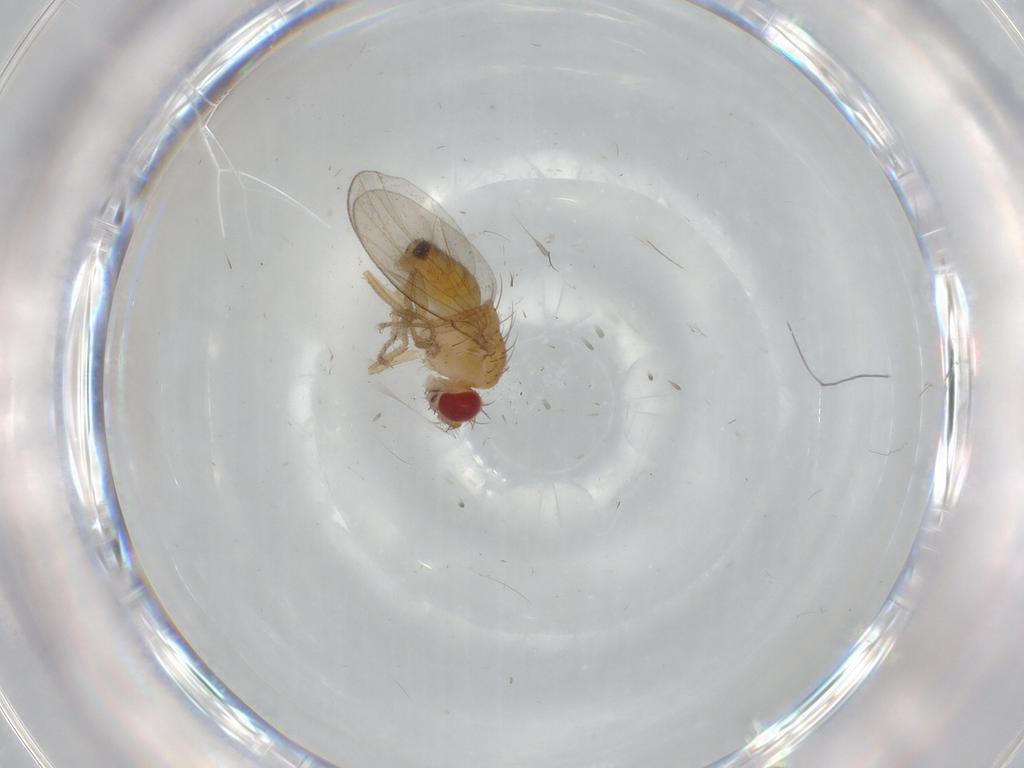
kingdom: Animalia
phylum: Arthropoda
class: Insecta
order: Diptera
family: Drosophilidae
